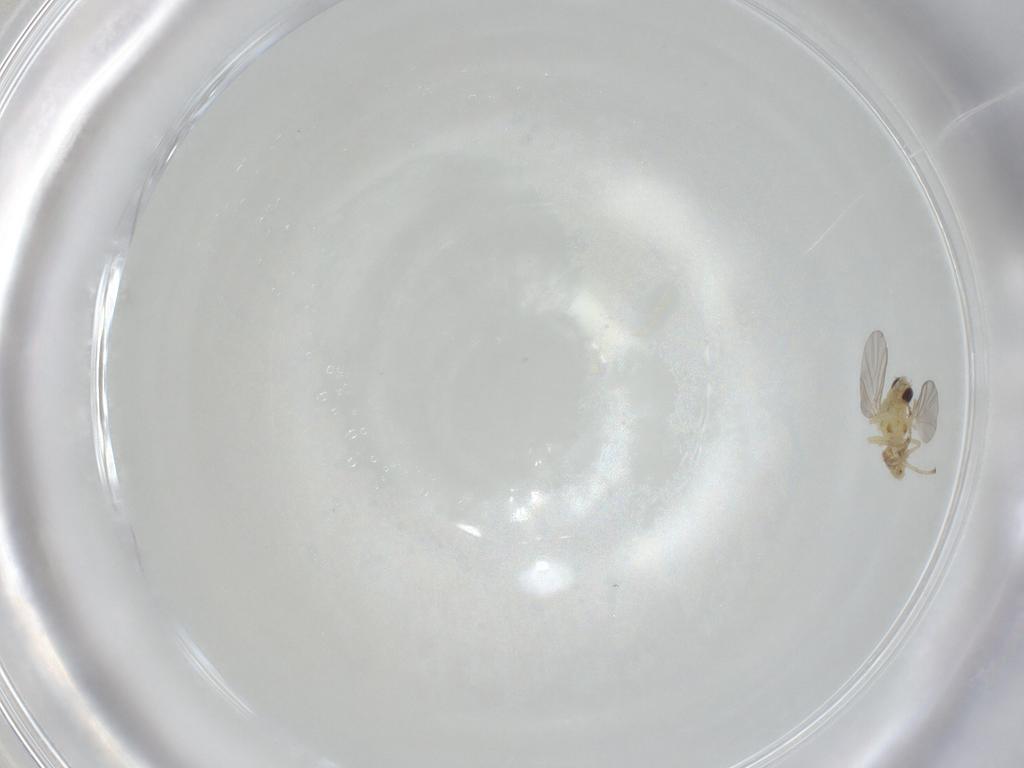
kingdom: Animalia
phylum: Arthropoda
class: Insecta
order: Diptera
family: Agromyzidae
